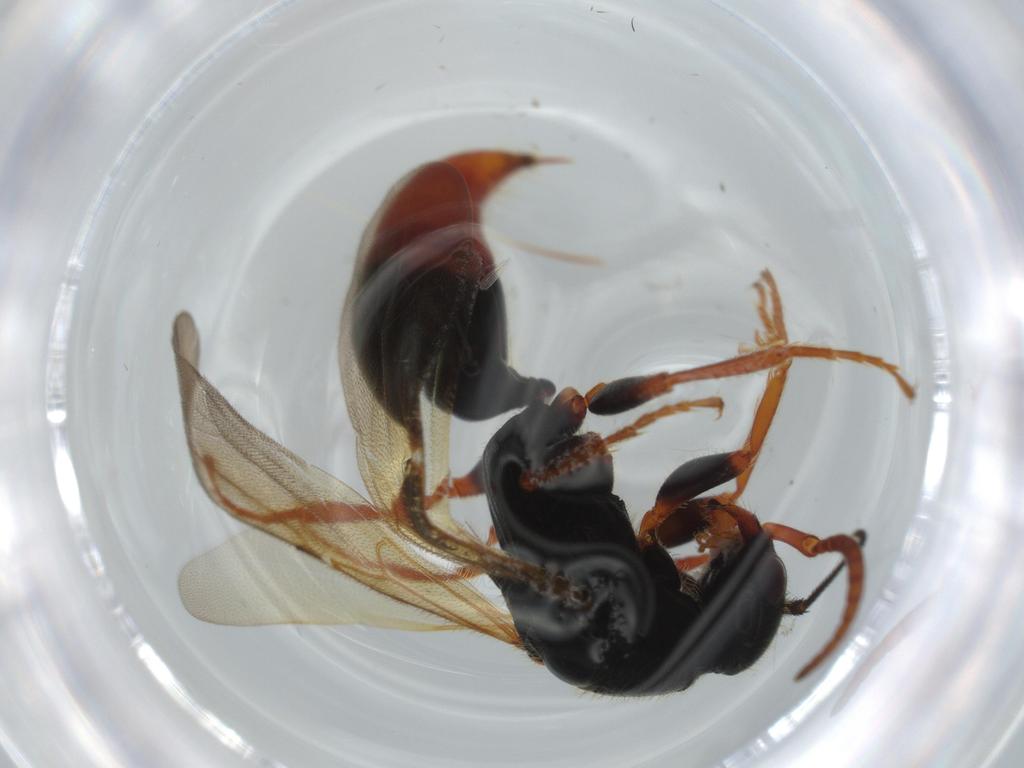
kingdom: Animalia
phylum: Arthropoda
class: Insecta
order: Hymenoptera
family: Bethylidae
